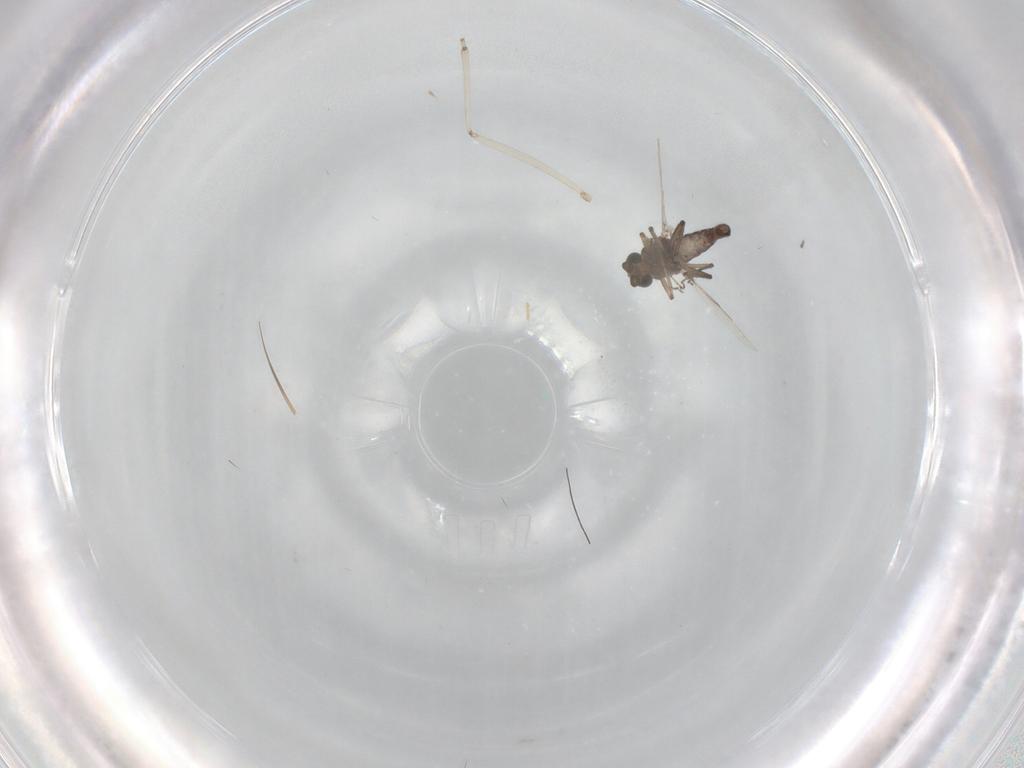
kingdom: Animalia
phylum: Arthropoda
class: Insecta
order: Diptera
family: Ceratopogonidae
